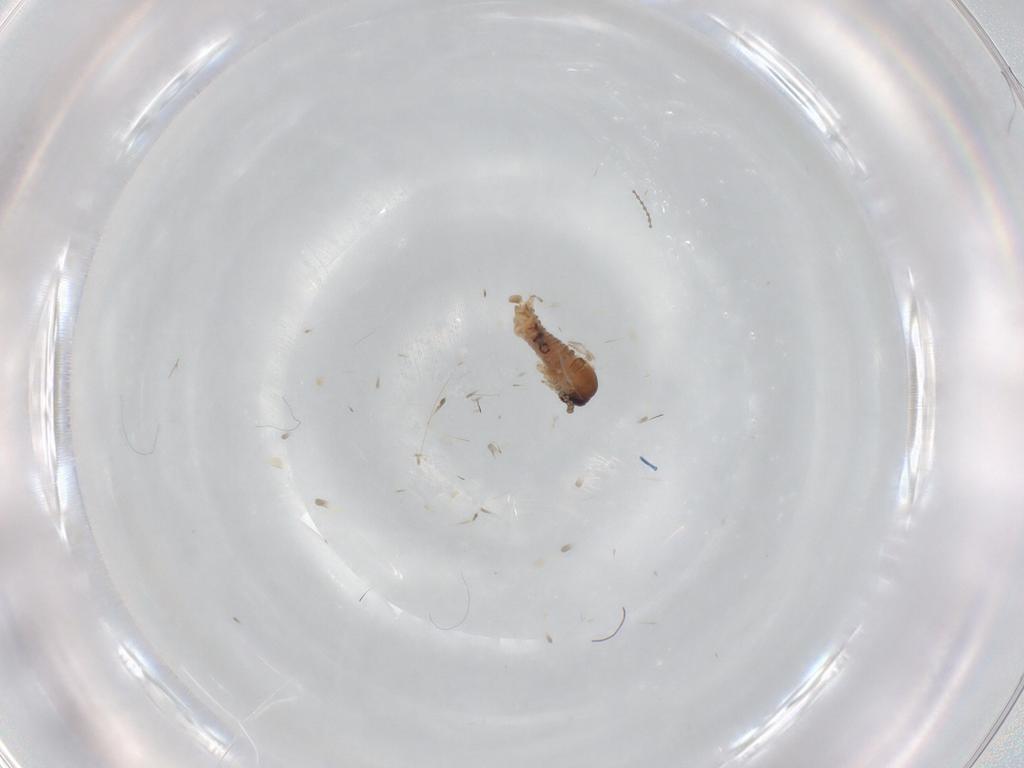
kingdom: Animalia
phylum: Arthropoda
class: Insecta
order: Diptera
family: Psychodidae
